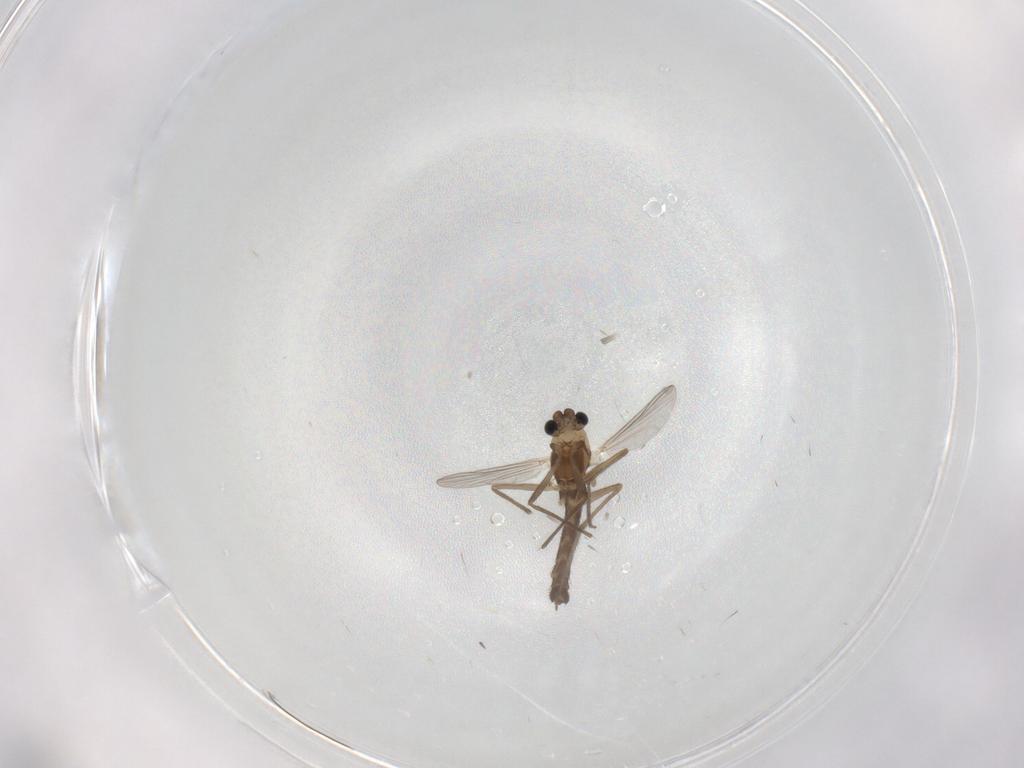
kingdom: Animalia
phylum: Arthropoda
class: Insecta
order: Diptera
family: Chironomidae
